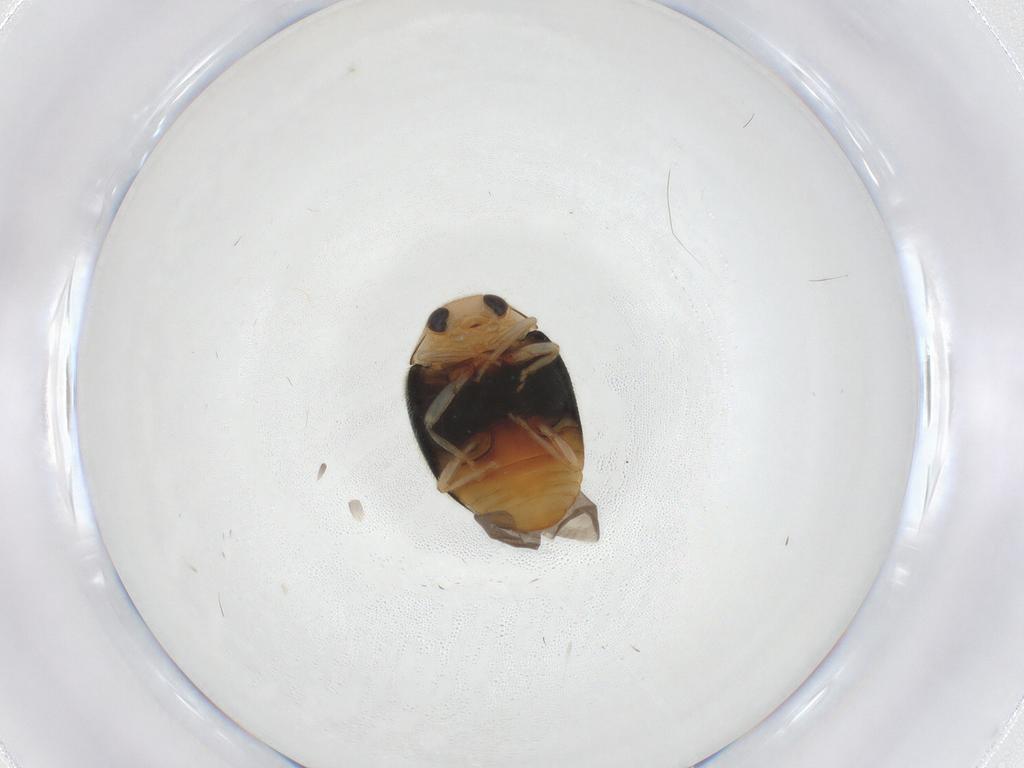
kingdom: Animalia
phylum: Arthropoda
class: Insecta
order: Coleoptera
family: Coccinellidae
